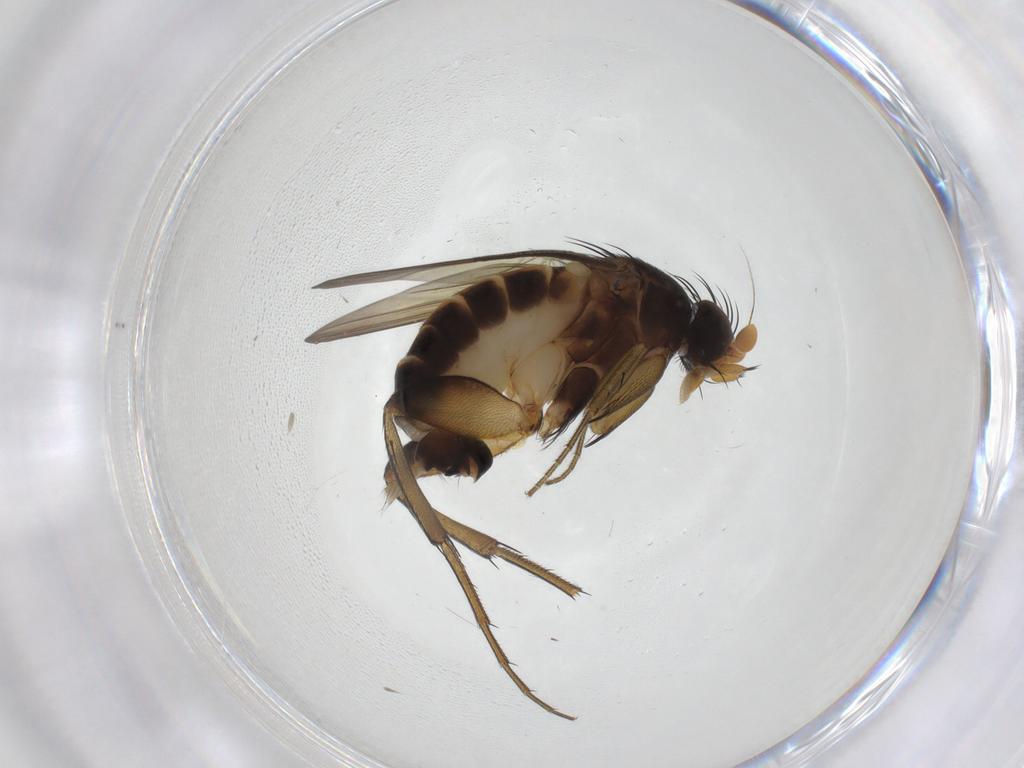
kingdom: Animalia
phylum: Arthropoda
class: Insecta
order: Diptera
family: Phoridae
